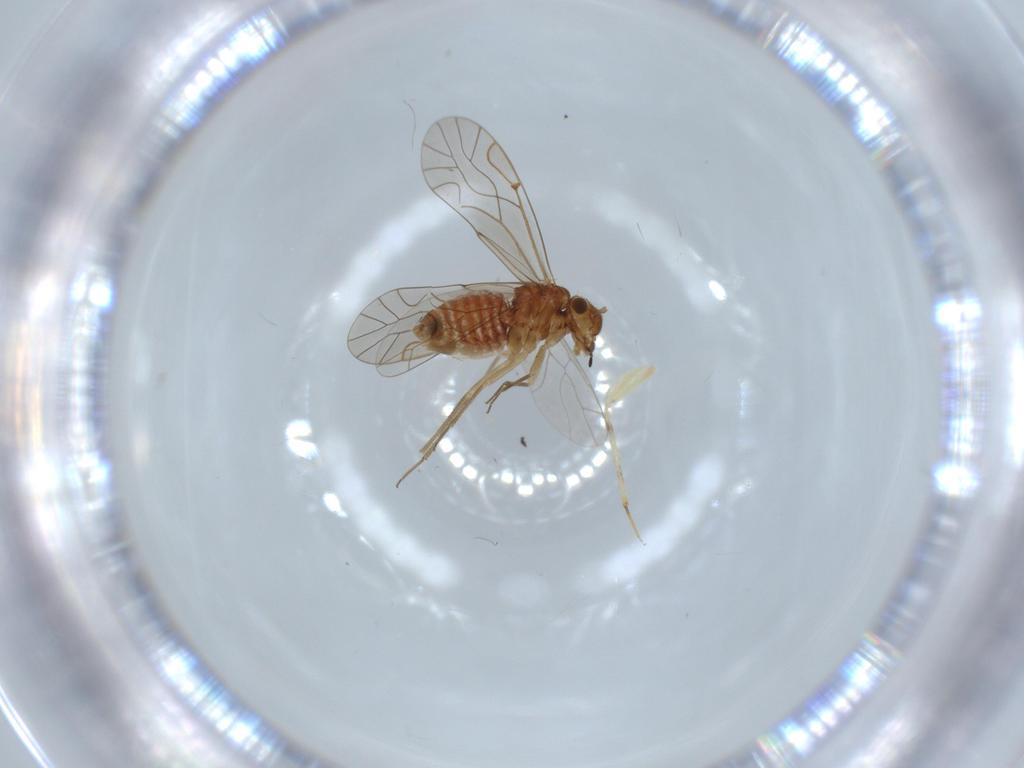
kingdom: Animalia
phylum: Arthropoda
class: Insecta
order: Psocodea
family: Lachesillidae
